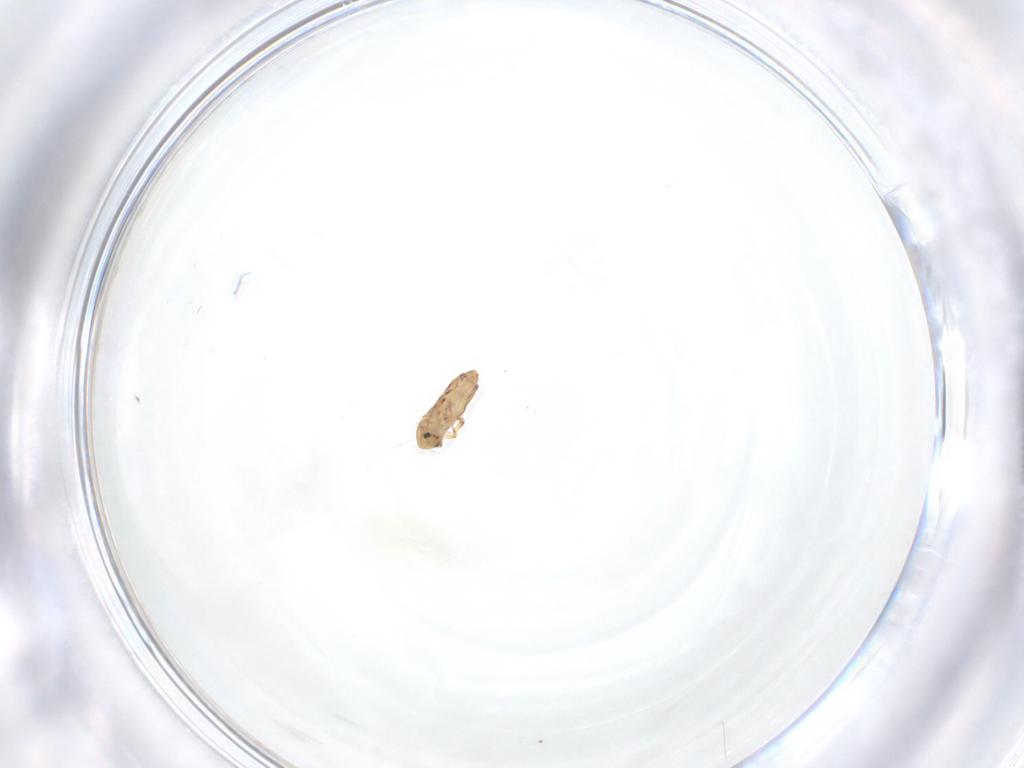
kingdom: Animalia
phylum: Arthropoda
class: Collembola
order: Entomobryomorpha
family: Entomobryidae
